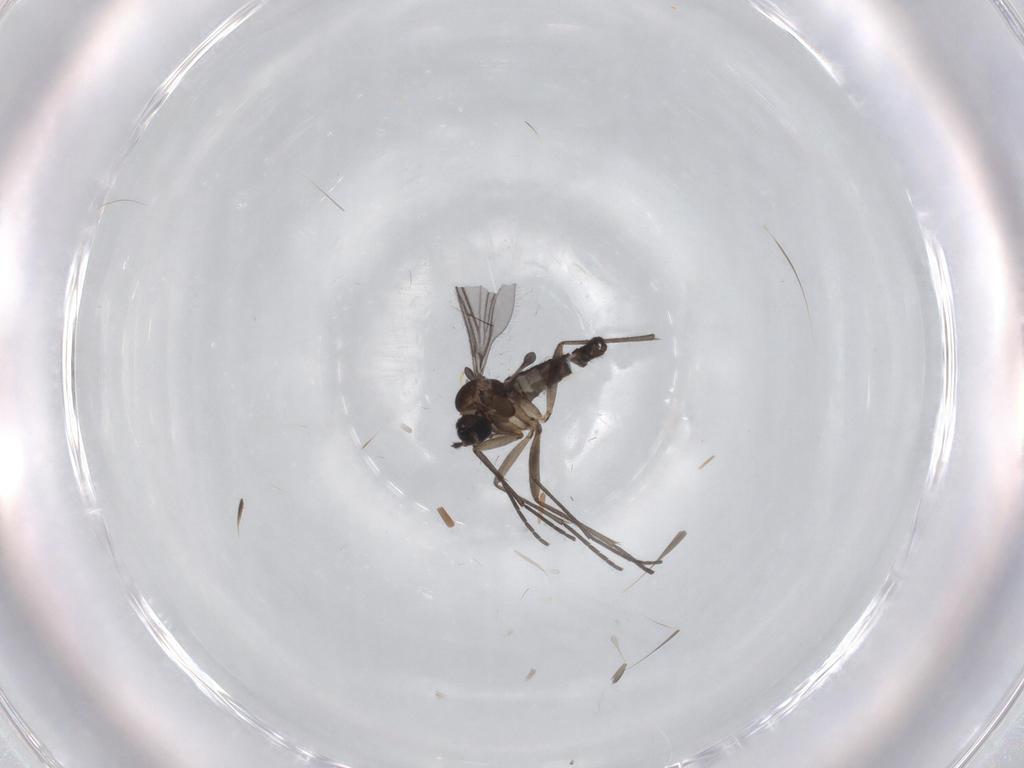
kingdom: Animalia
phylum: Arthropoda
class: Insecta
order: Diptera
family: Sciaridae
